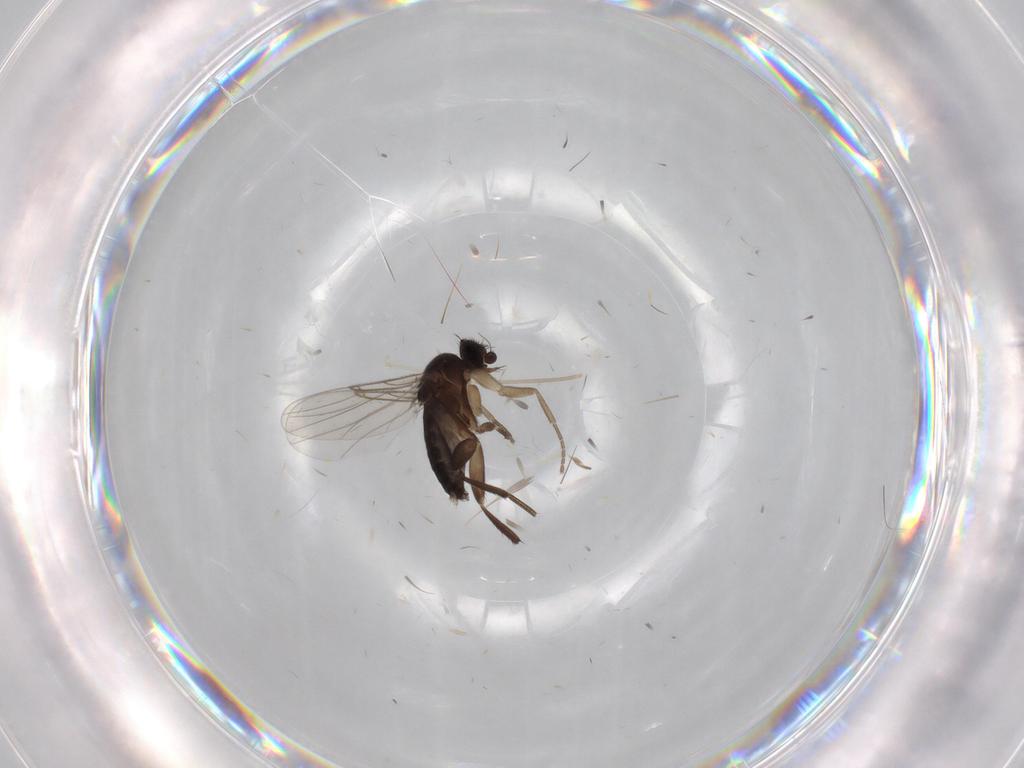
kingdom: Animalia
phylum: Arthropoda
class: Insecta
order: Diptera
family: Phoridae
